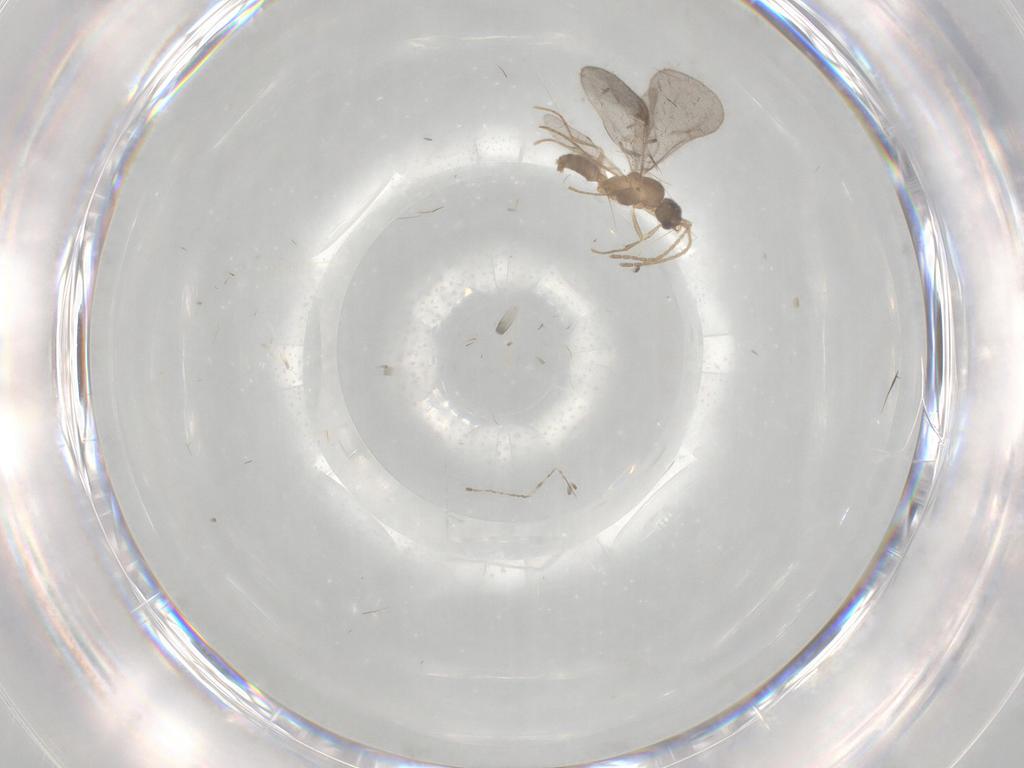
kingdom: Animalia
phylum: Arthropoda
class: Insecta
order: Hymenoptera
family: Formicidae
